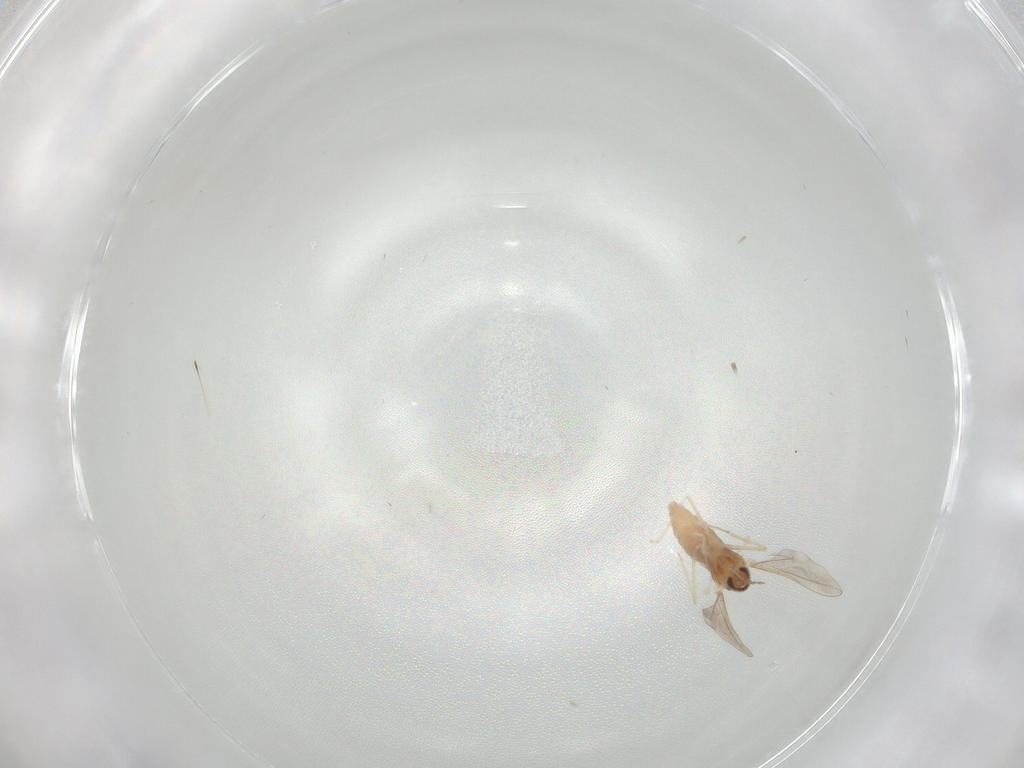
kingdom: Animalia
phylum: Arthropoda
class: Insecta
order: Diptera
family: Cecidomyiidae
